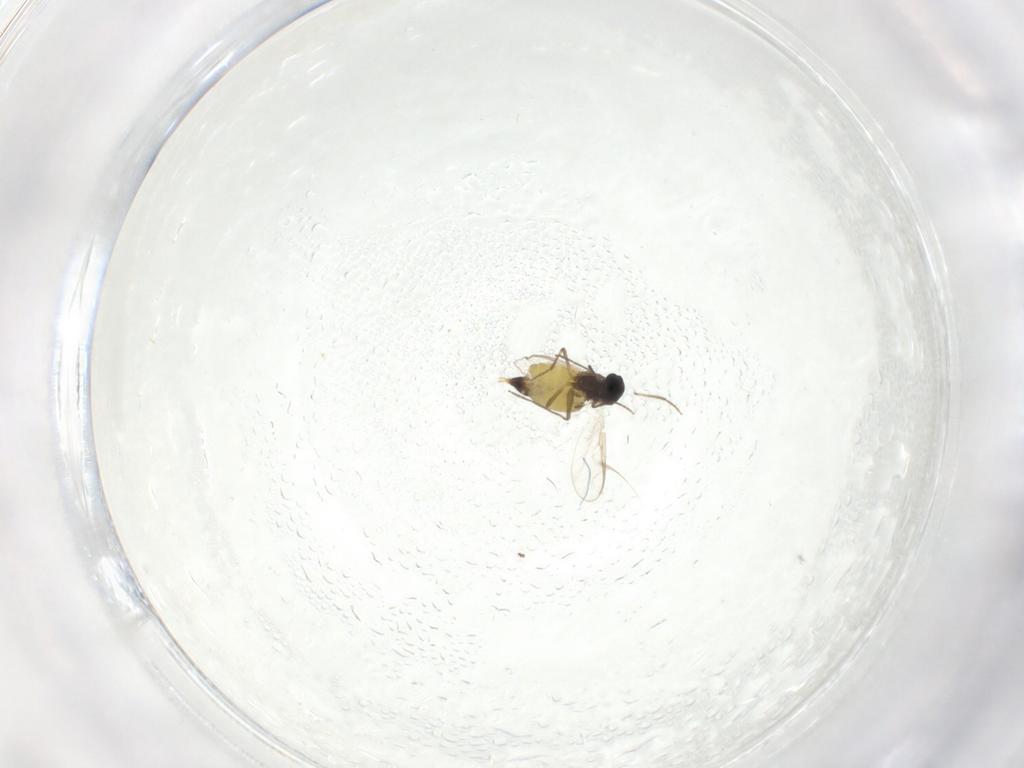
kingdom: Animalia
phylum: Arthropoda
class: Insecta
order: Diptera
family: Chironomidae
